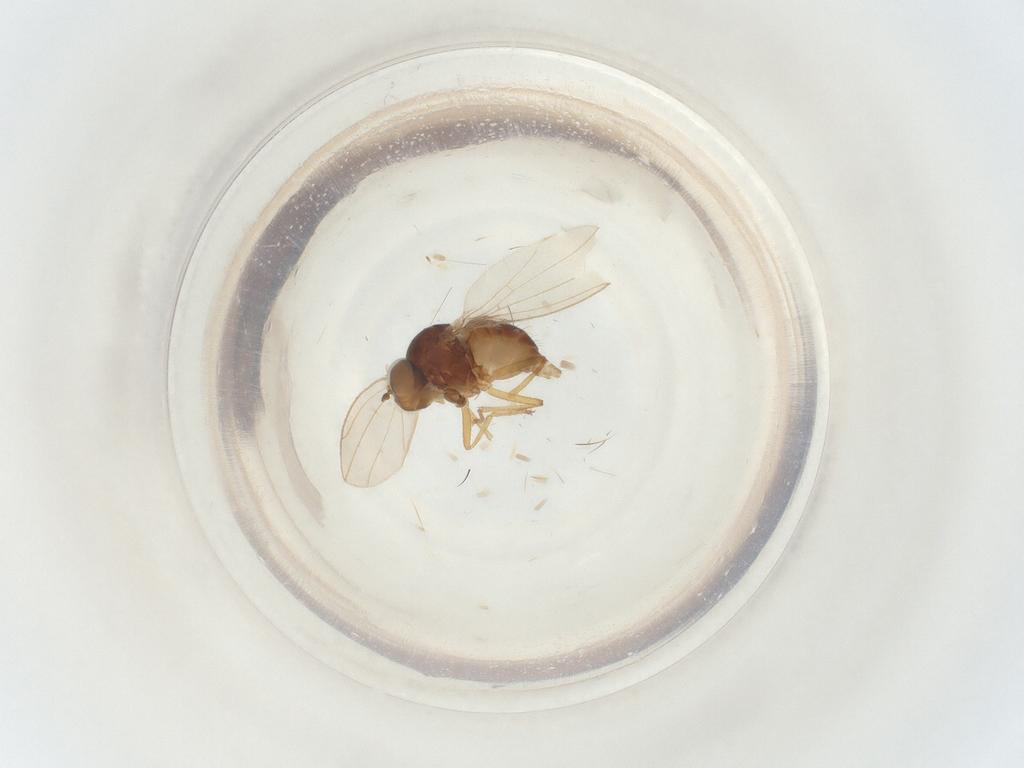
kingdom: Animalia
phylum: Arthropoda
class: Insecta
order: Diptera
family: Ephydridae
